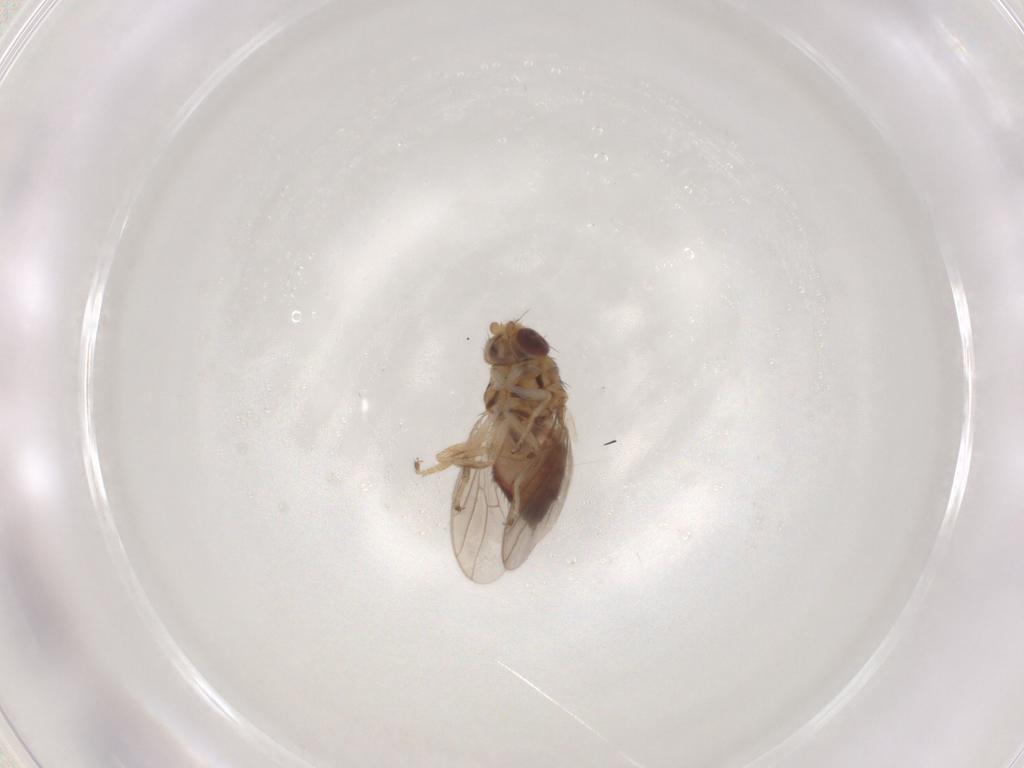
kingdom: Animalia
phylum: Arthropoda
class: Insecta
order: Diptera
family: Chloropidae
